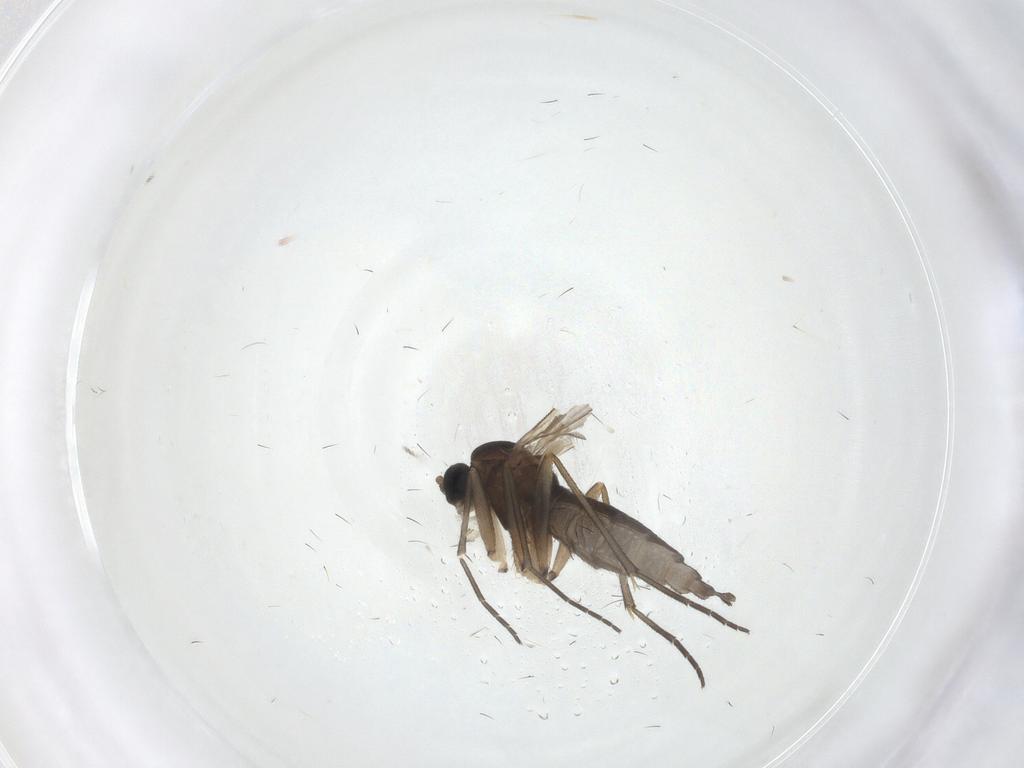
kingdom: Animalia
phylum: Arthropoda
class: Insecta
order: Diptera
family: Sciaridae
